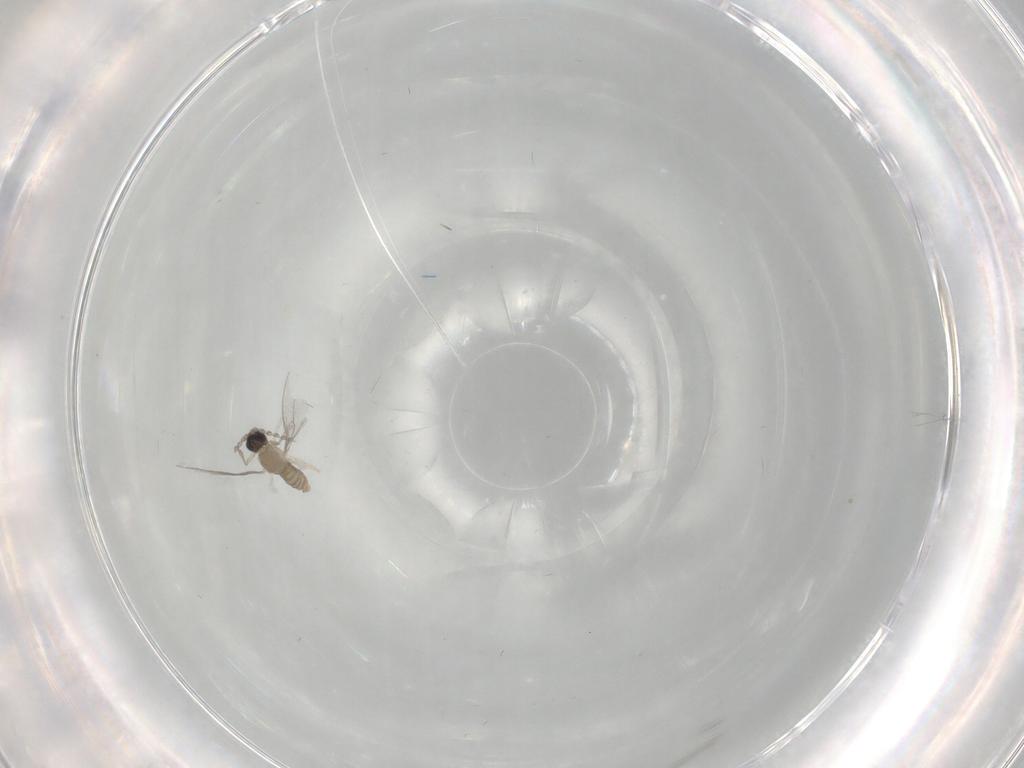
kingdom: Animalia
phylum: Arthropoda
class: Insecta
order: Diptera
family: Cecidomyiidae
